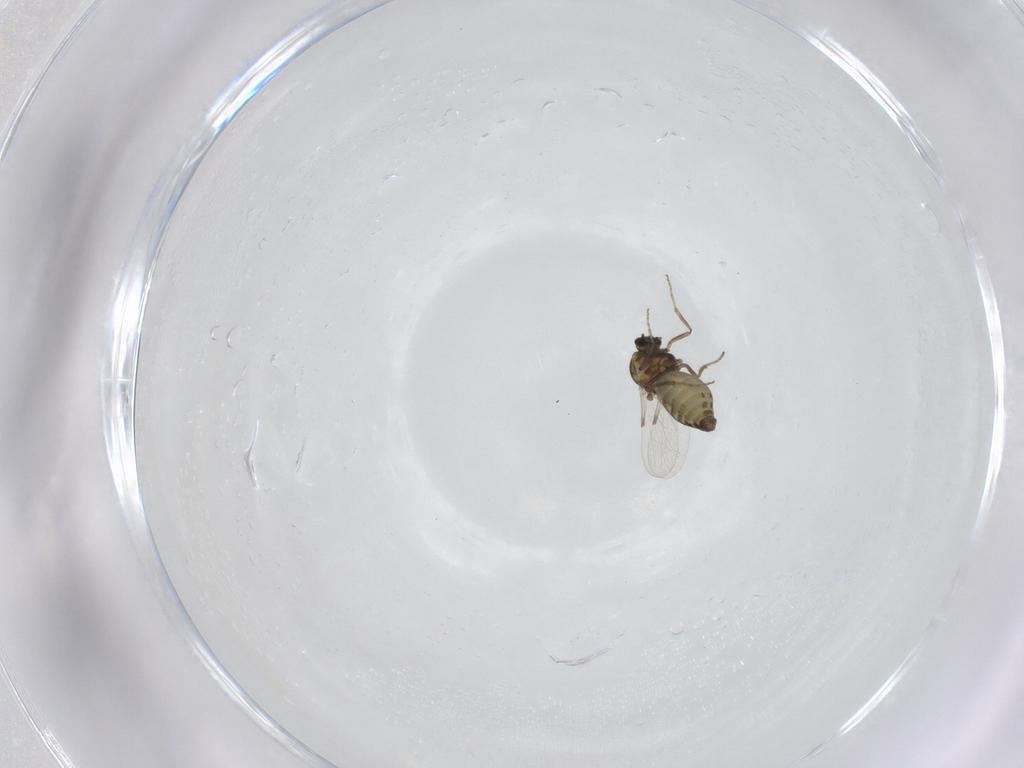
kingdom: Animalia
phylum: Arthropoda
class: Insecta
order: Diptera
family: Ceratopogonidae
